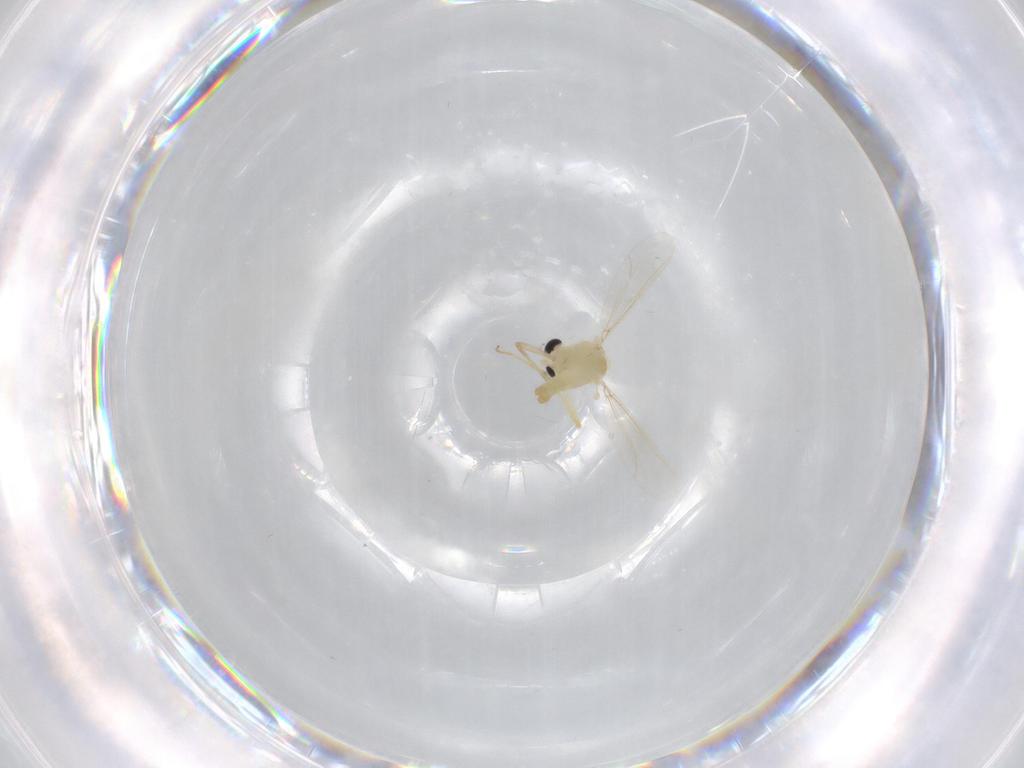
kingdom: Animalia
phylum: Arthropoda
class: Insecta
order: Diptera
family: Chironomidae
